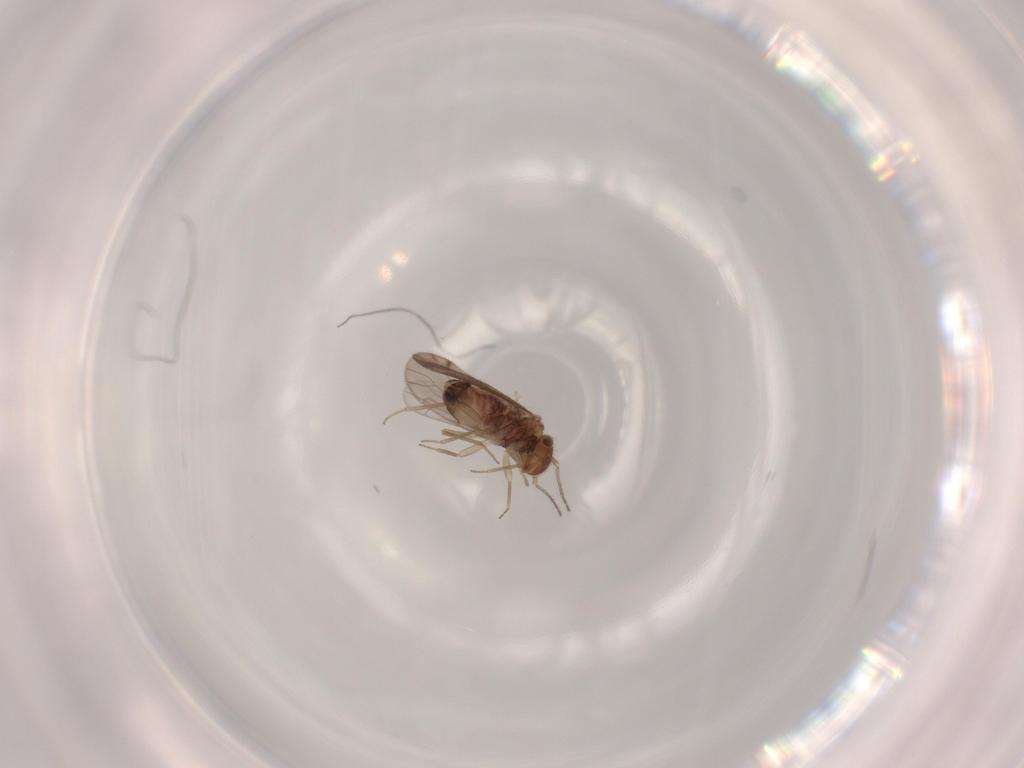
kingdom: Animalia
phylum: Arthropoda
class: Insecta
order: Psocodea
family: Ectopsocidae
